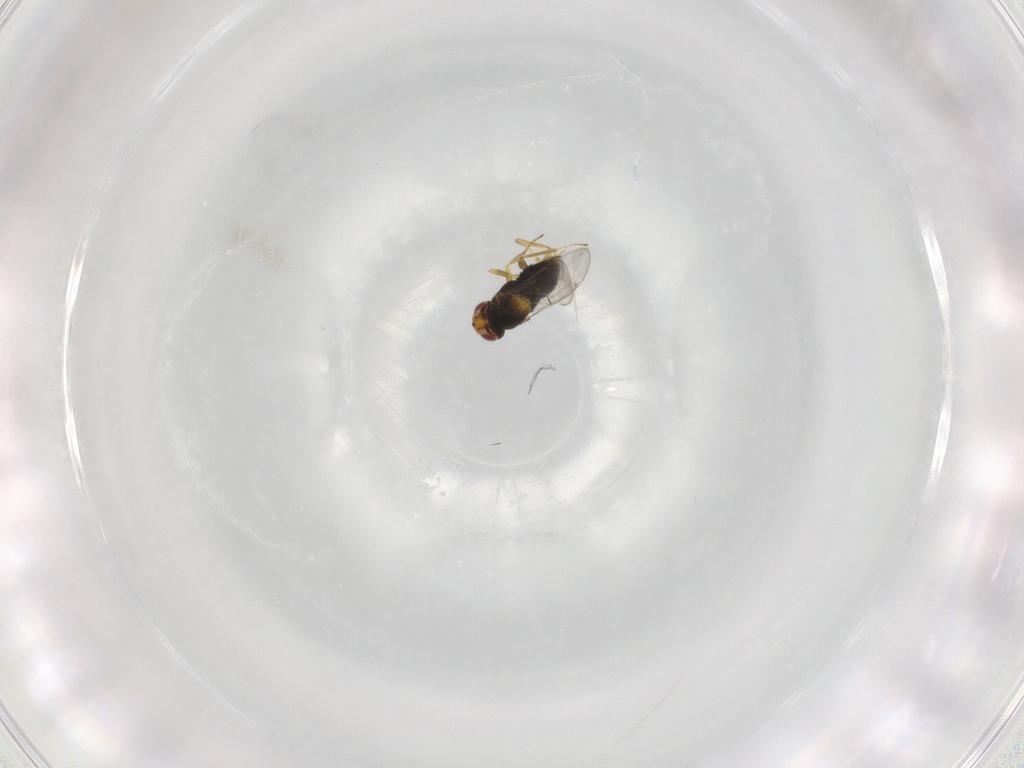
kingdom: Animalia
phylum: Arthropoda
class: Insecta
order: Hymenoptera
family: Aphelinidae
